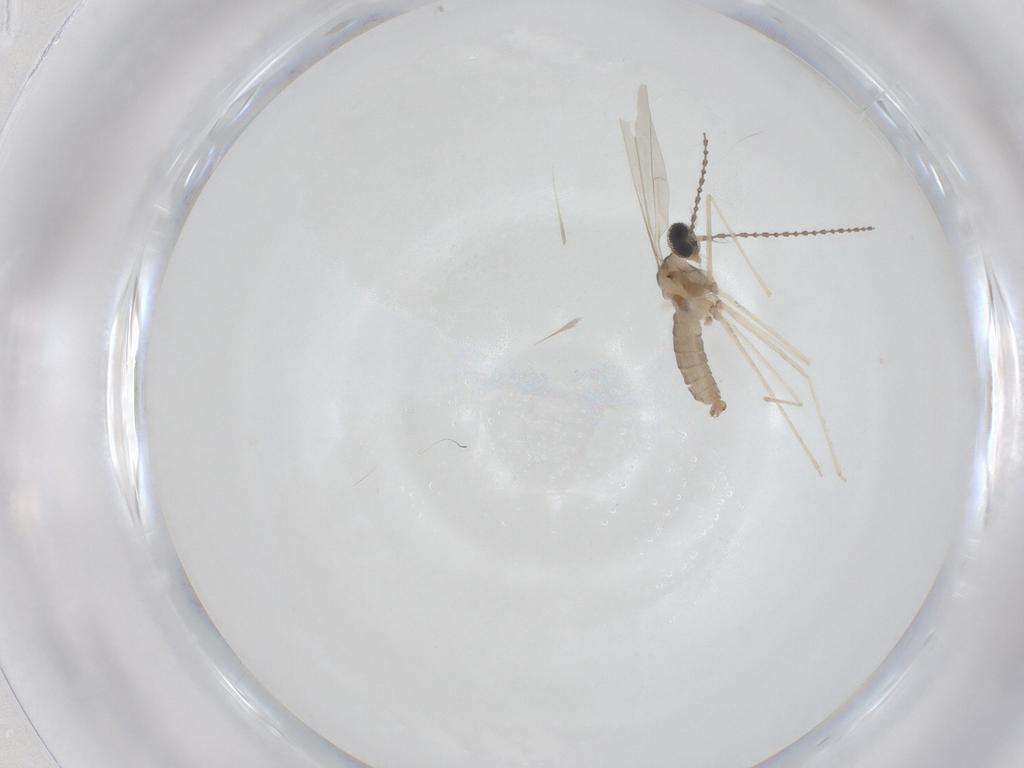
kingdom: Animalia
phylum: Arthropoda
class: Insecta
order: Diptera
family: Cecidomyiidae
